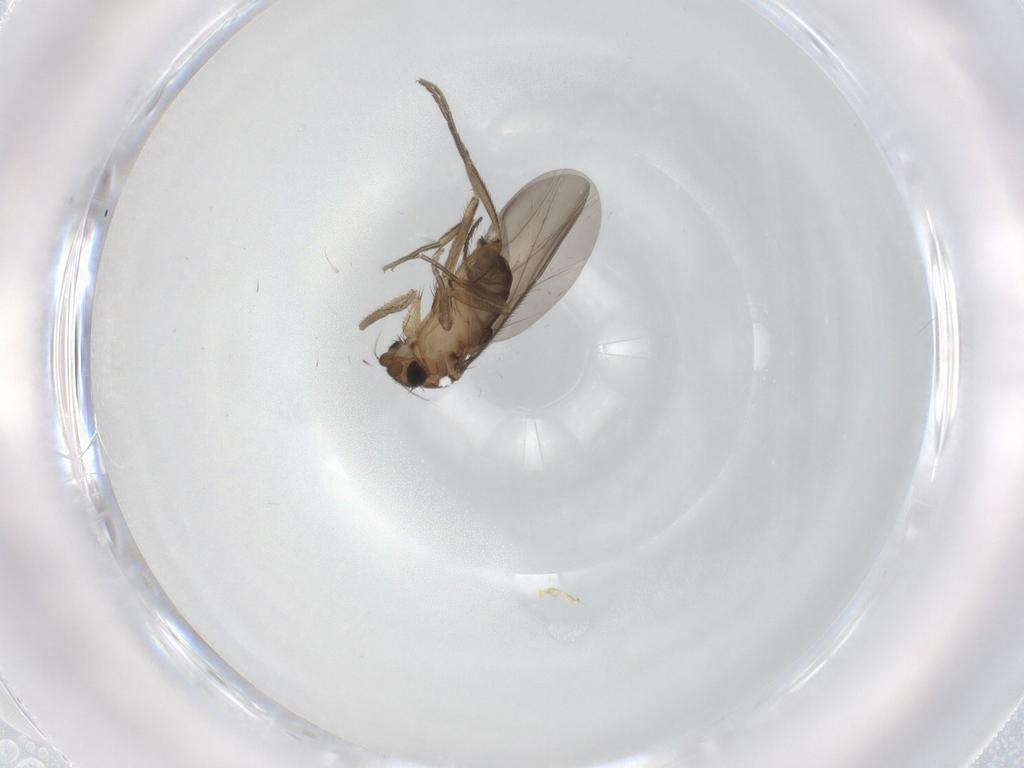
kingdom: Animalia
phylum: Arthropoda
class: Insecta
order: Diptera
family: Phoridae
